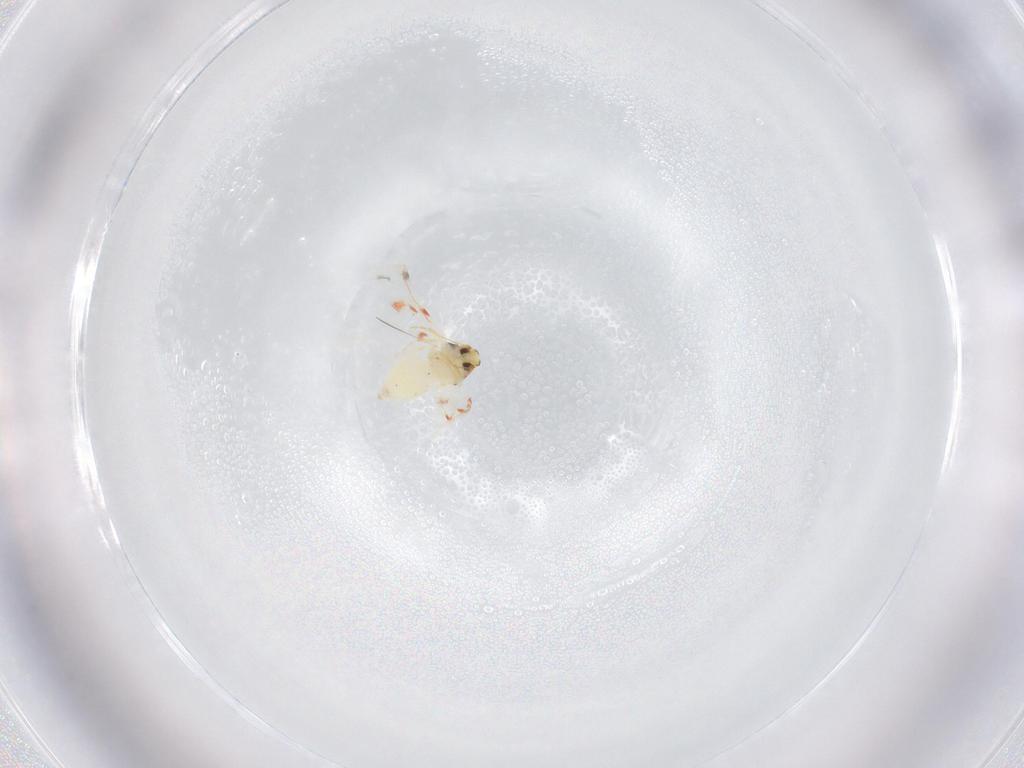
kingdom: Animalia
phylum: Arthropoda
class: Insecta
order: Hemiptera
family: Aleyrodidae
